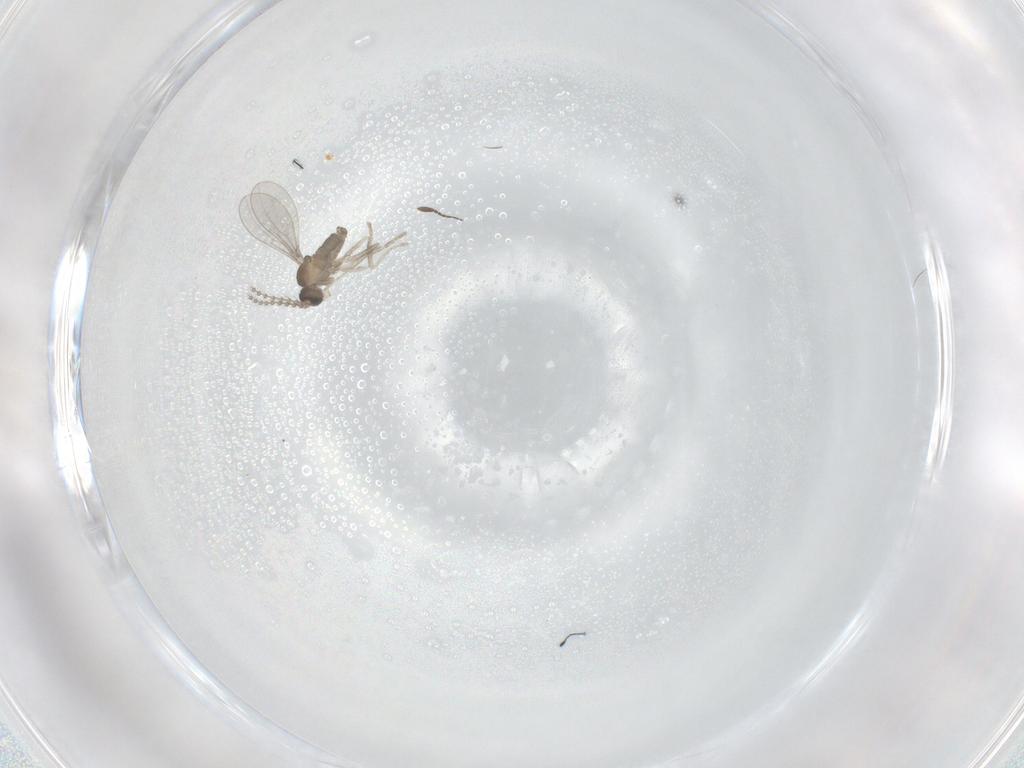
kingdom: Animalia
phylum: Arthropoda
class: Insecta
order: Diptera
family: Cecidomyiidae
